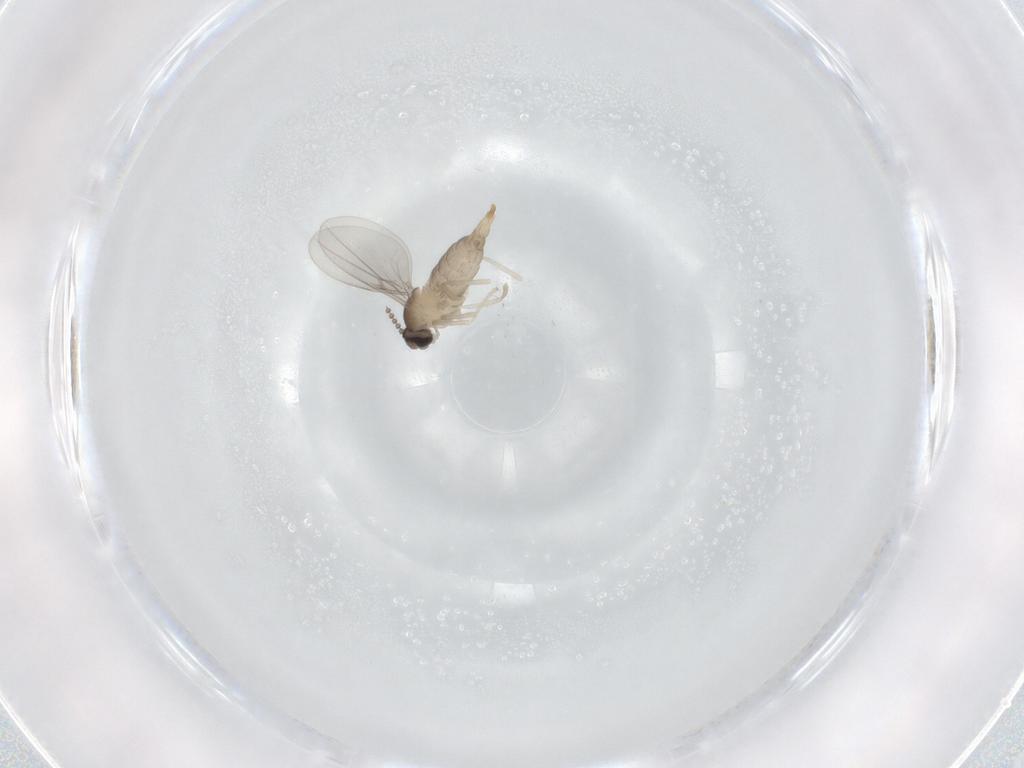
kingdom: Animalia
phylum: Arthropoda
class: Insecta
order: Diptera
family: Cecidomyiidae
